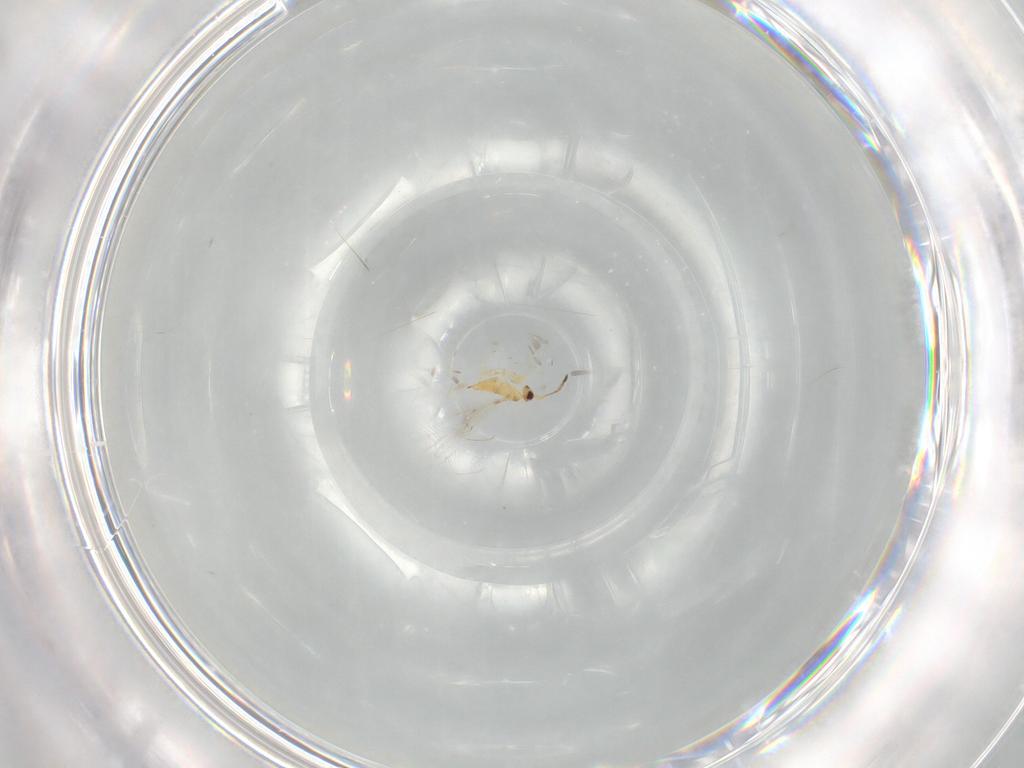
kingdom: Animalia
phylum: Arthropoda
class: Insecta
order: Hymenoptera
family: Mymaridae
